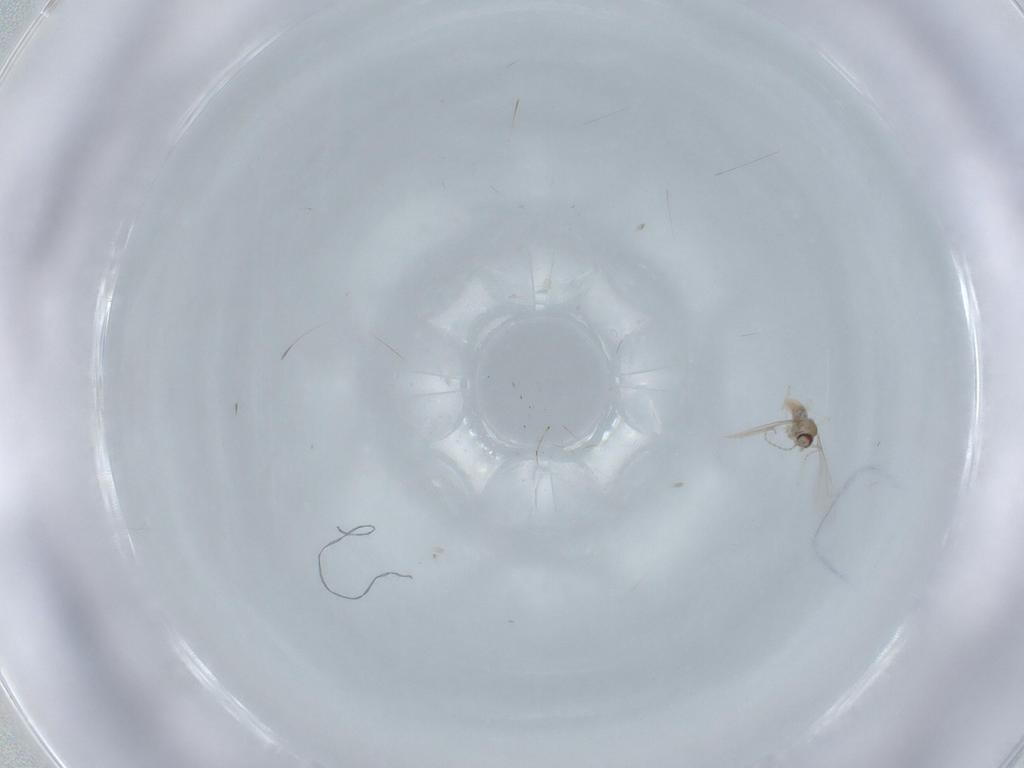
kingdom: Animalia
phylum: Arthropoda
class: Insecta
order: Diptera
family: Cecidomyiidae
